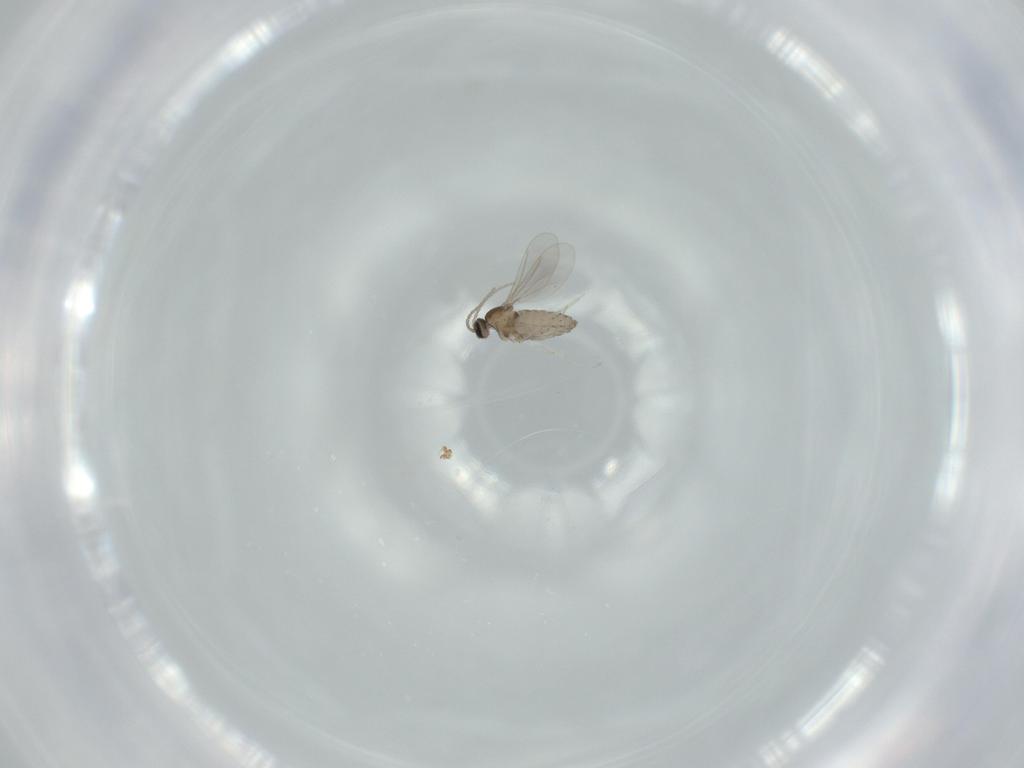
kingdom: Animalia
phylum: Arthropoda
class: Insecta
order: Diptera
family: Cecidomyiidae
